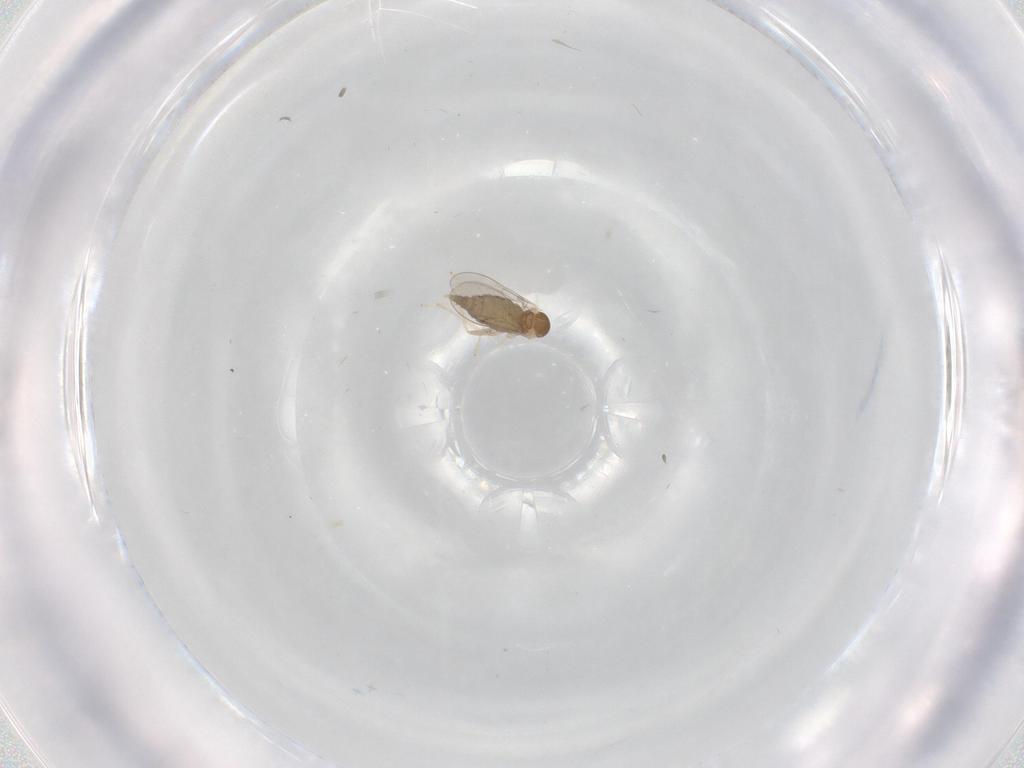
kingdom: Animalia
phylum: Arthropoda
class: Insecta
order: Diptera
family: Cecidomyiidae
